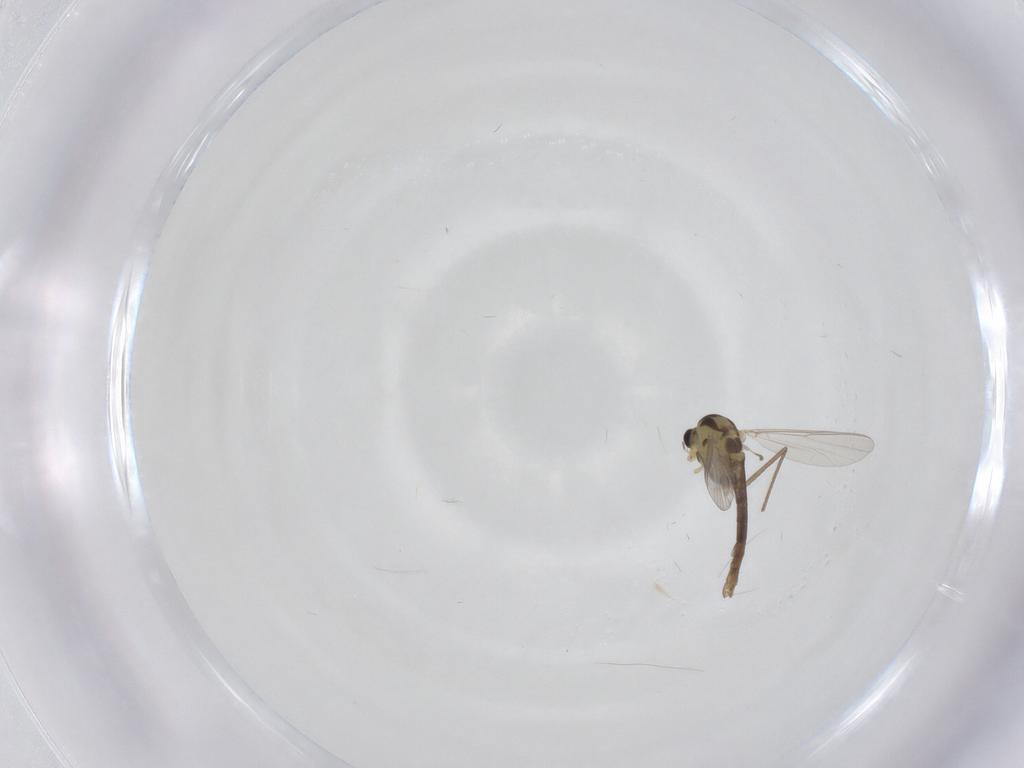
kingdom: Animalia
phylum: Arthropoda
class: Insecta
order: Diptera
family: Chironomidae
